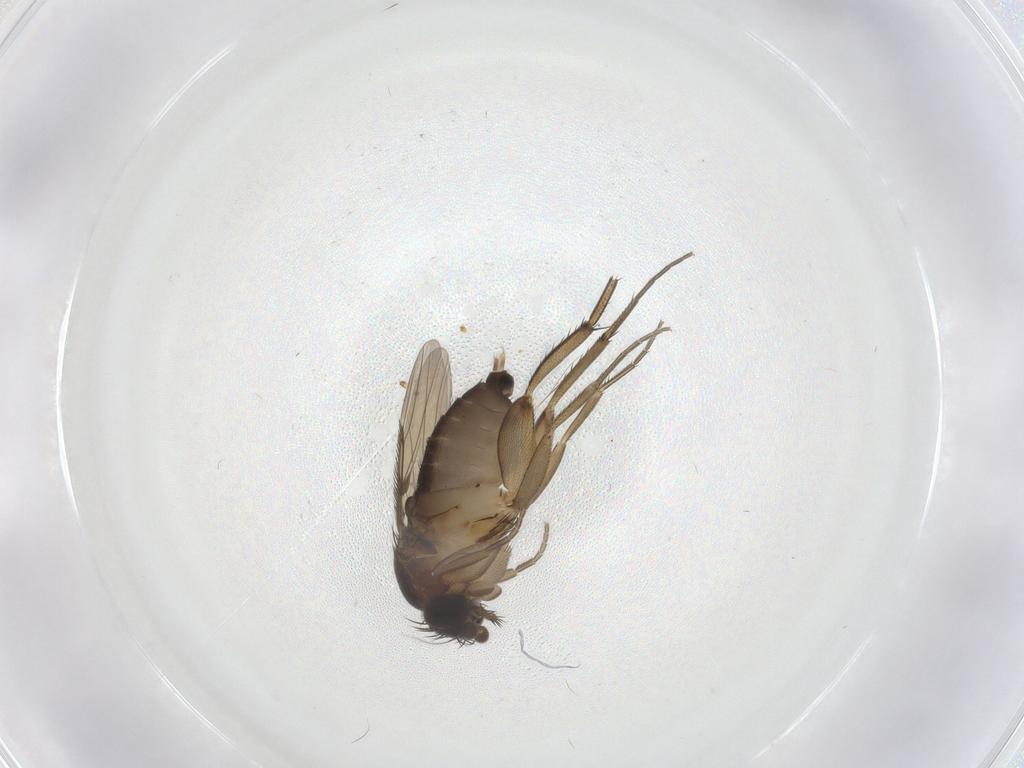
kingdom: Animalia
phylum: Arthropoda
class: Insecta
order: Diptera
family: Phoridae
